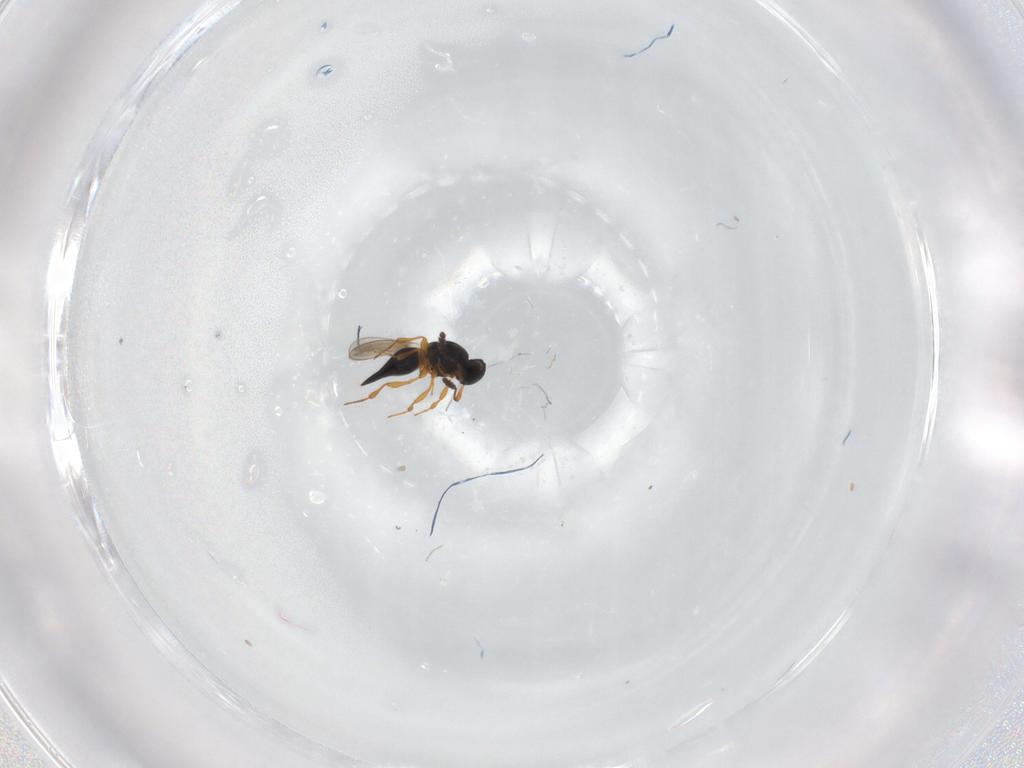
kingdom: Animalia
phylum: Arthropoda
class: Insecta
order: Hymenoptera
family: Platygastridae
